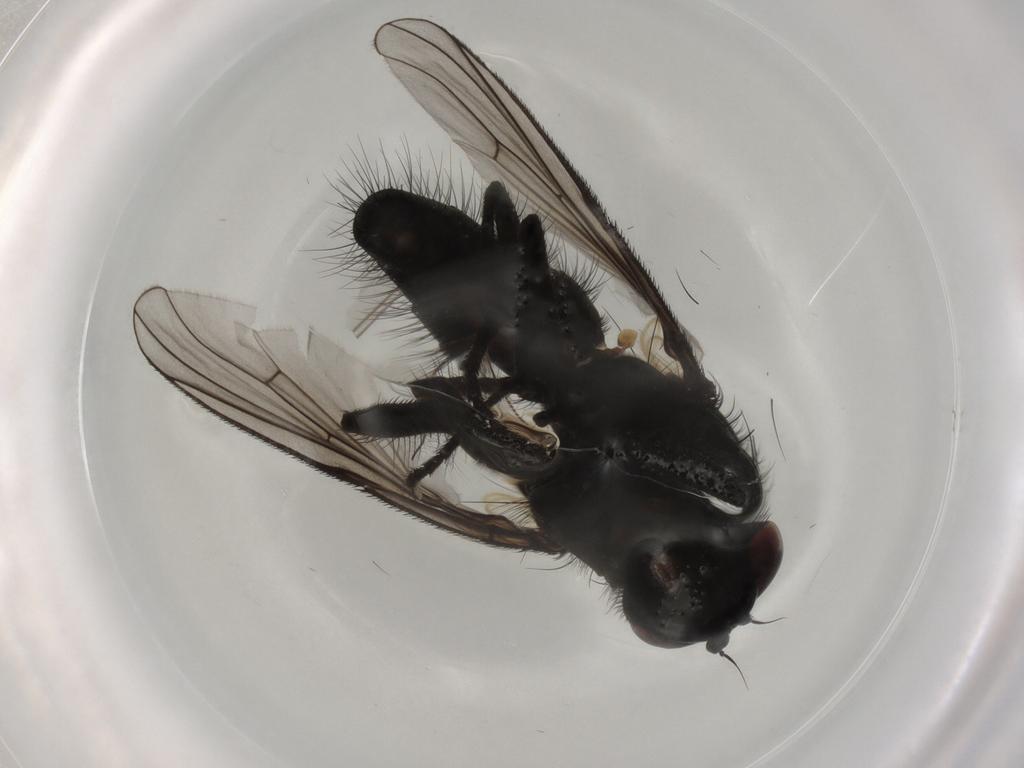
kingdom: Animalia
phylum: Arthropoda
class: Insecta
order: Diptera
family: Muscidae
